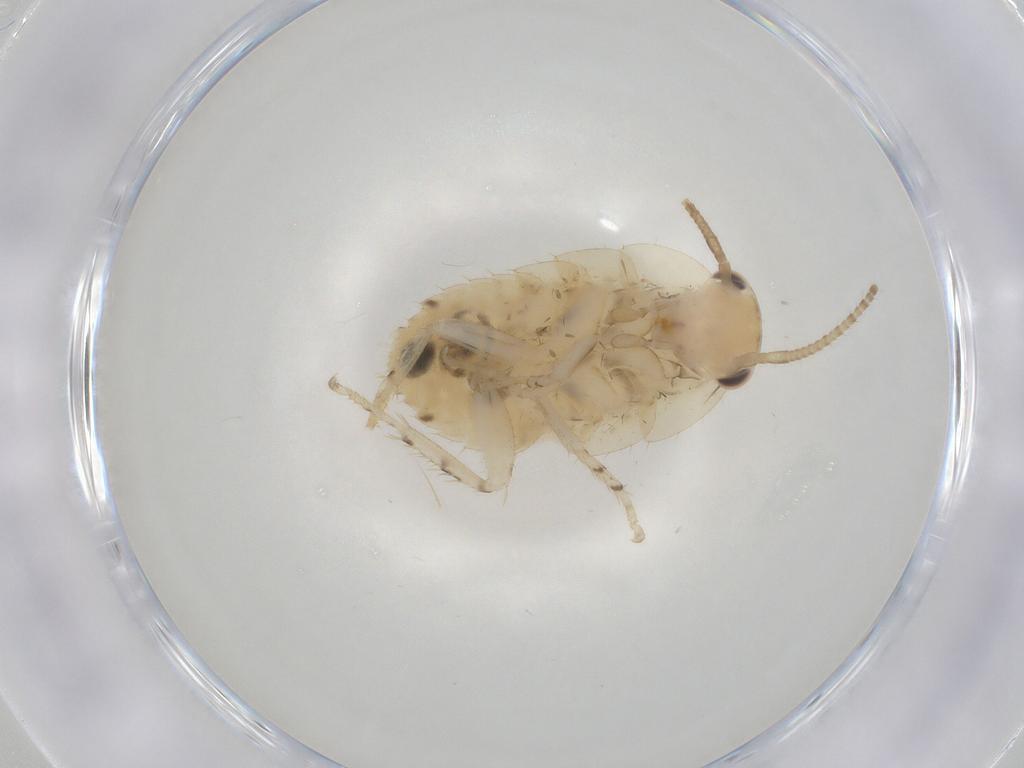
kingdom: Animalia
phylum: Arthropoda
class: Insecta
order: Blattodea
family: Ectobiidae
